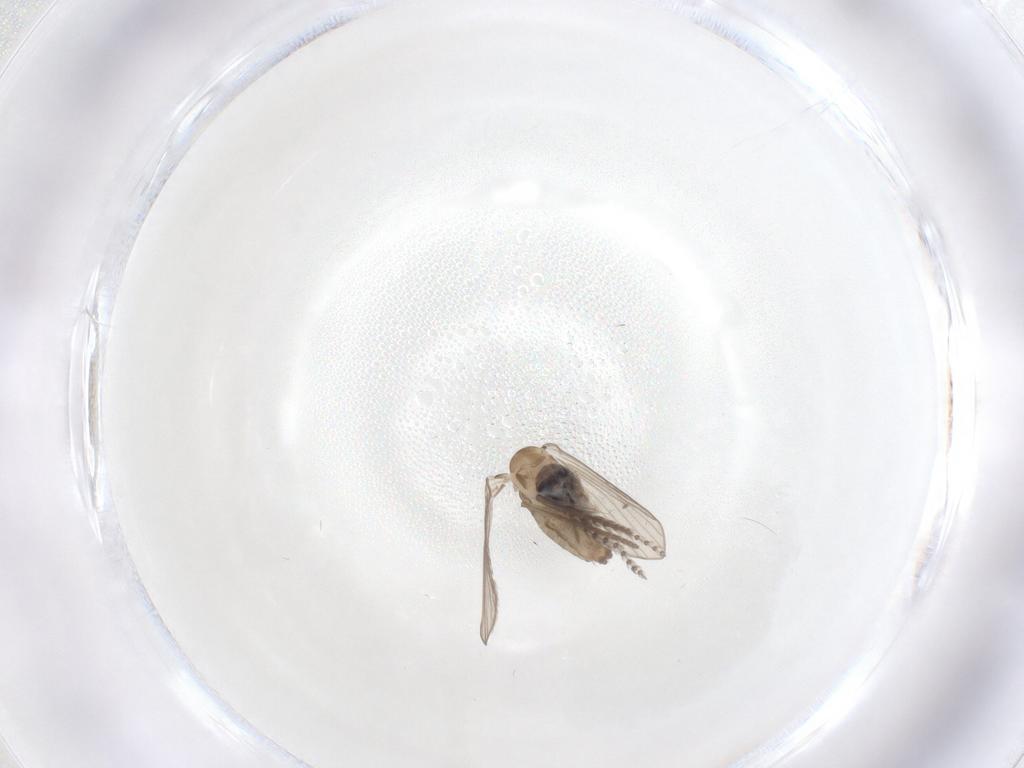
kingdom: Animalia
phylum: Arthropoda
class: Insecta
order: Diptera
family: Psychodidae
